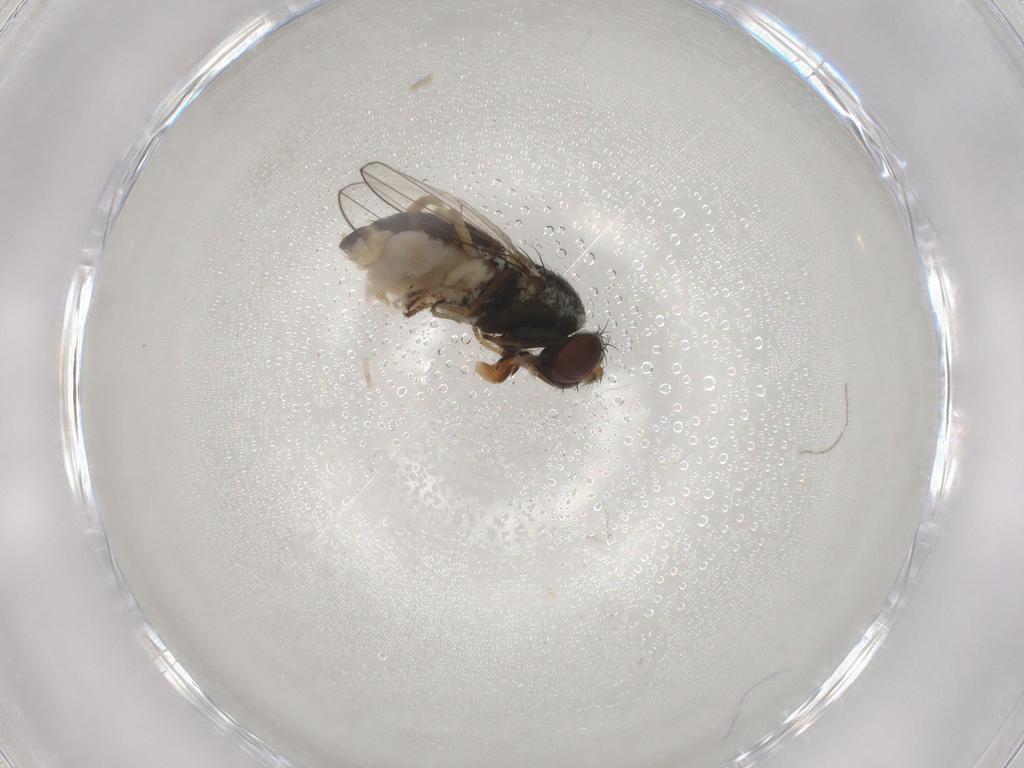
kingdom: Animalia
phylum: Arthropoda
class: Insecta
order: Diptera
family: Ephydridae
